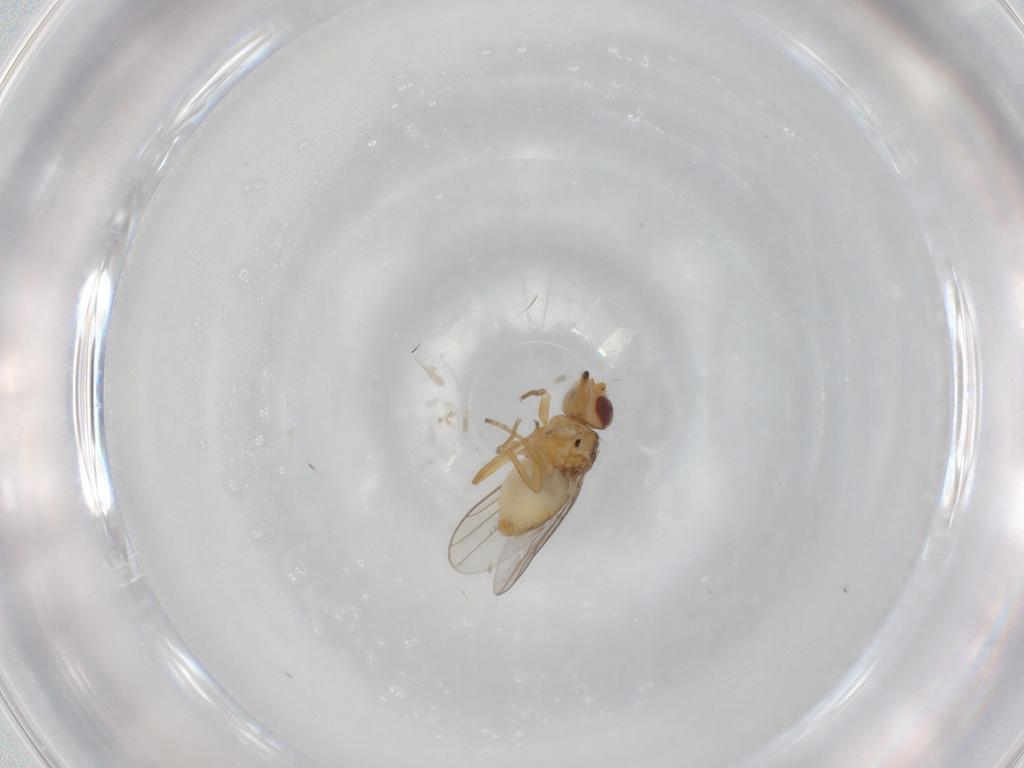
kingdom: Animalia
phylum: Arthropoda
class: Insecta
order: Diptera
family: Chloropidae
